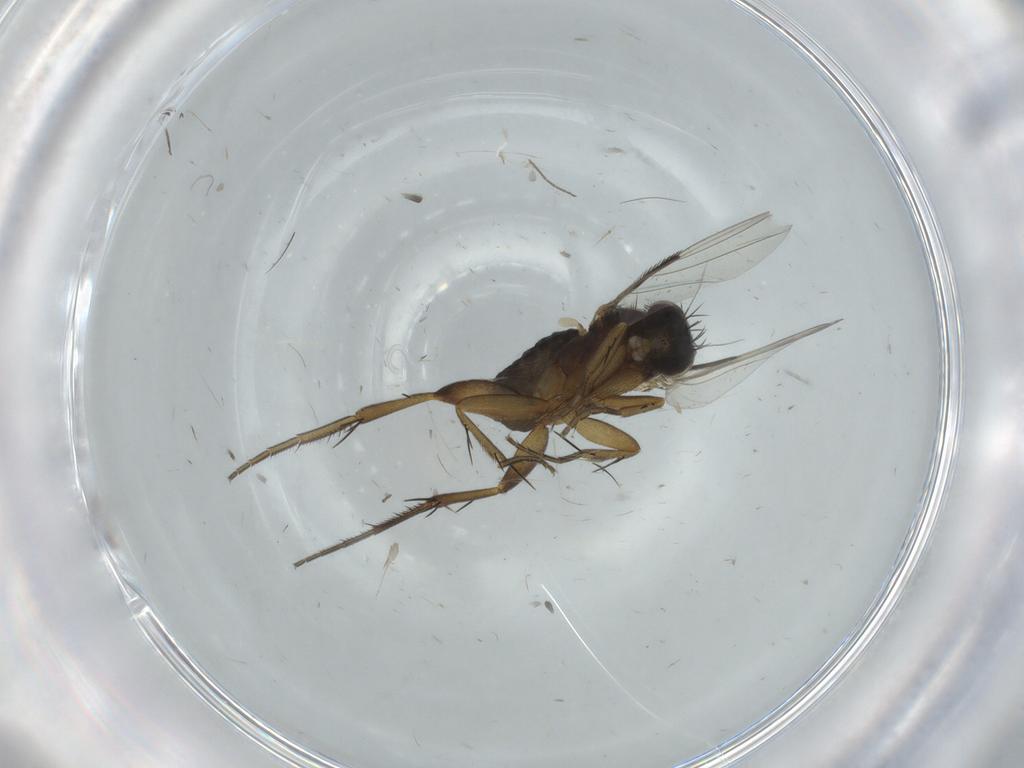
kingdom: Animalia
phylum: Arthropoda
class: Insecta
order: Diptera
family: Phoridae
